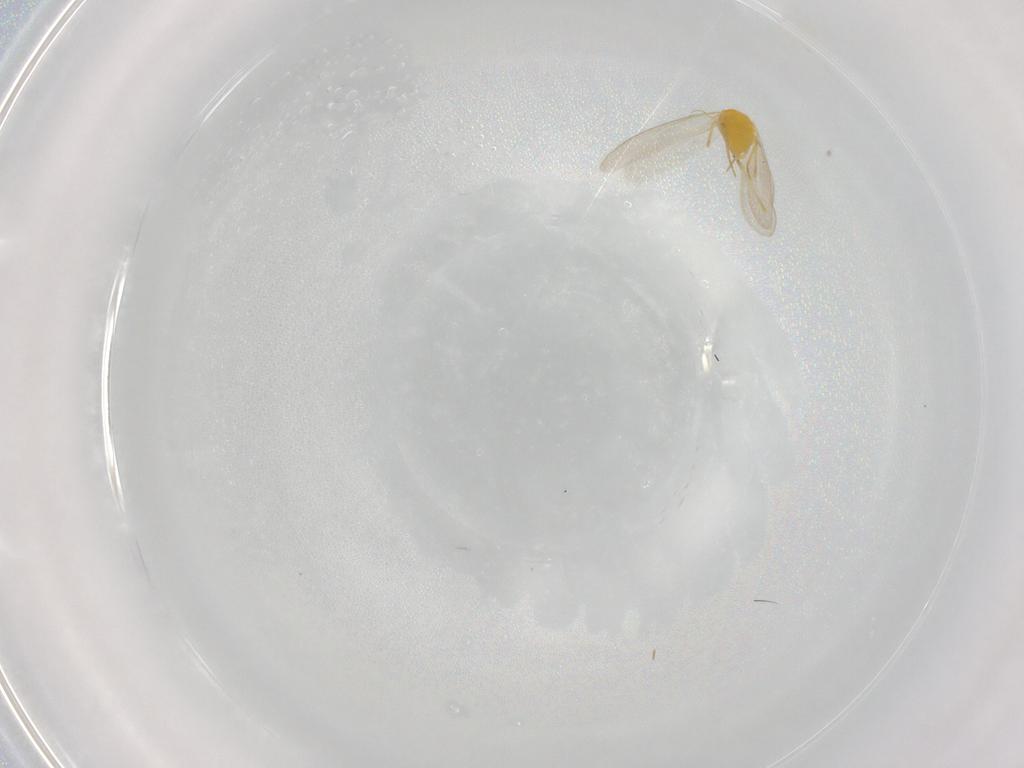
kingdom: Animalia
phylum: Arthropoda
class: Insecta
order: Hemiptera
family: Aleyrodidae
